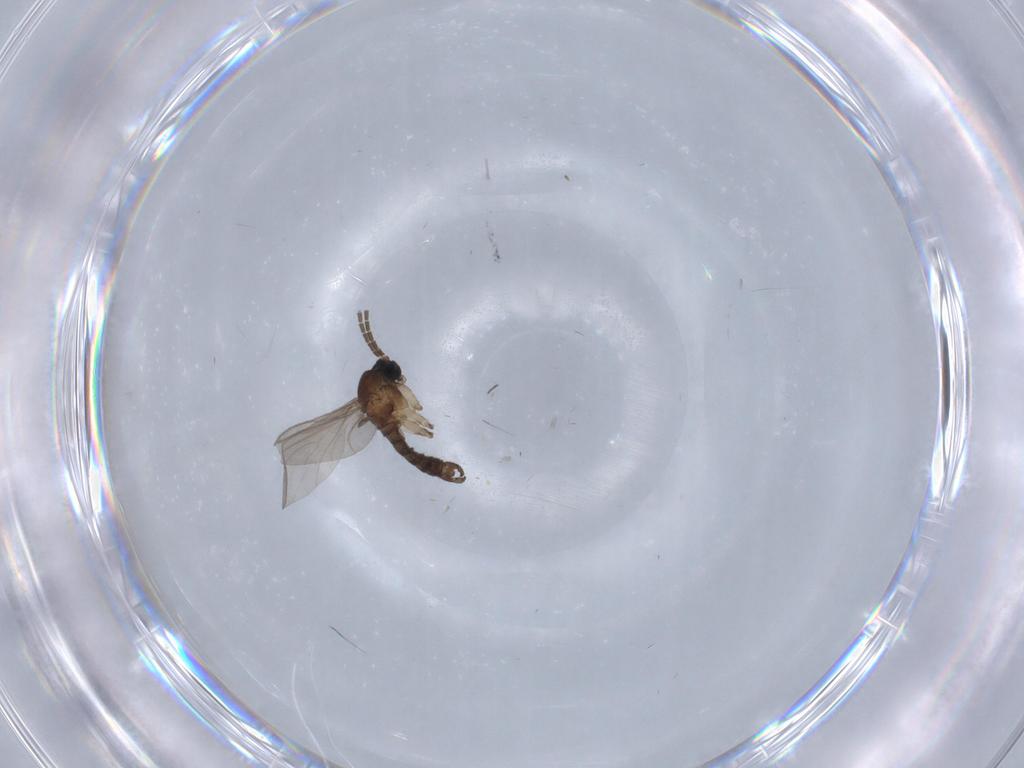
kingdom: Animalia
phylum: Arthropoda
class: Insecta
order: Diptera
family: Sciaridae
